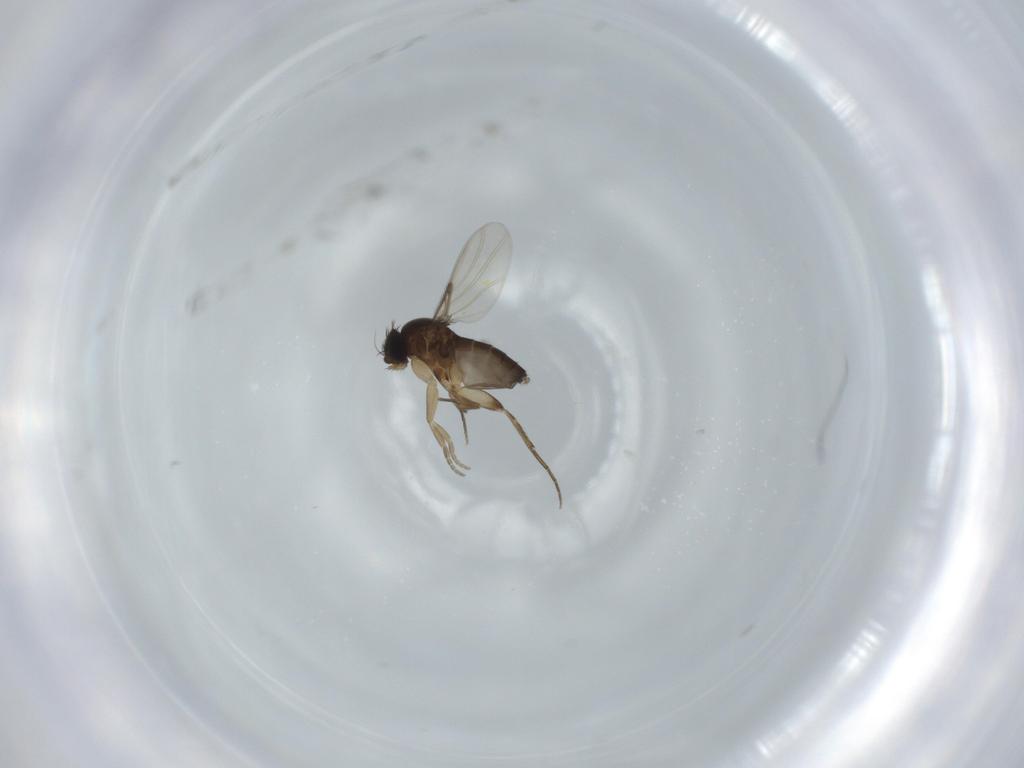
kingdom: Animalia
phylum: Arthropoda
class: Insecta
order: Diptera
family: Phoridae
